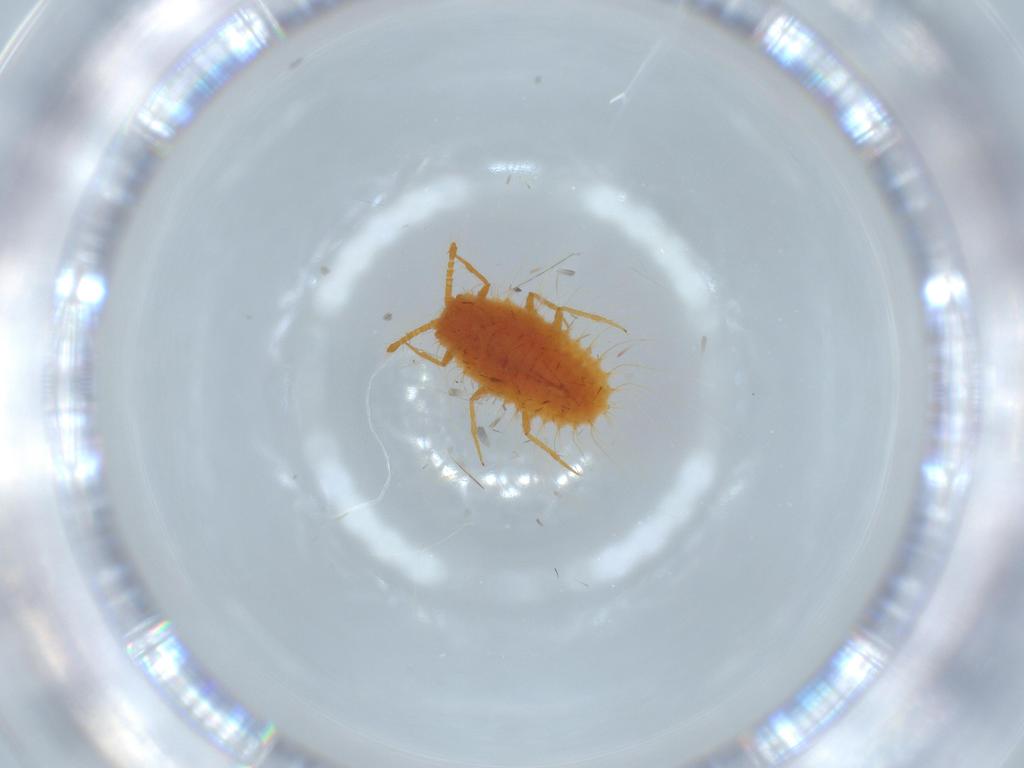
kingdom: Animalia
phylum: Arthropoda
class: Insecta
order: Hemiptera
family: Coccoidea_incertae_sedis
